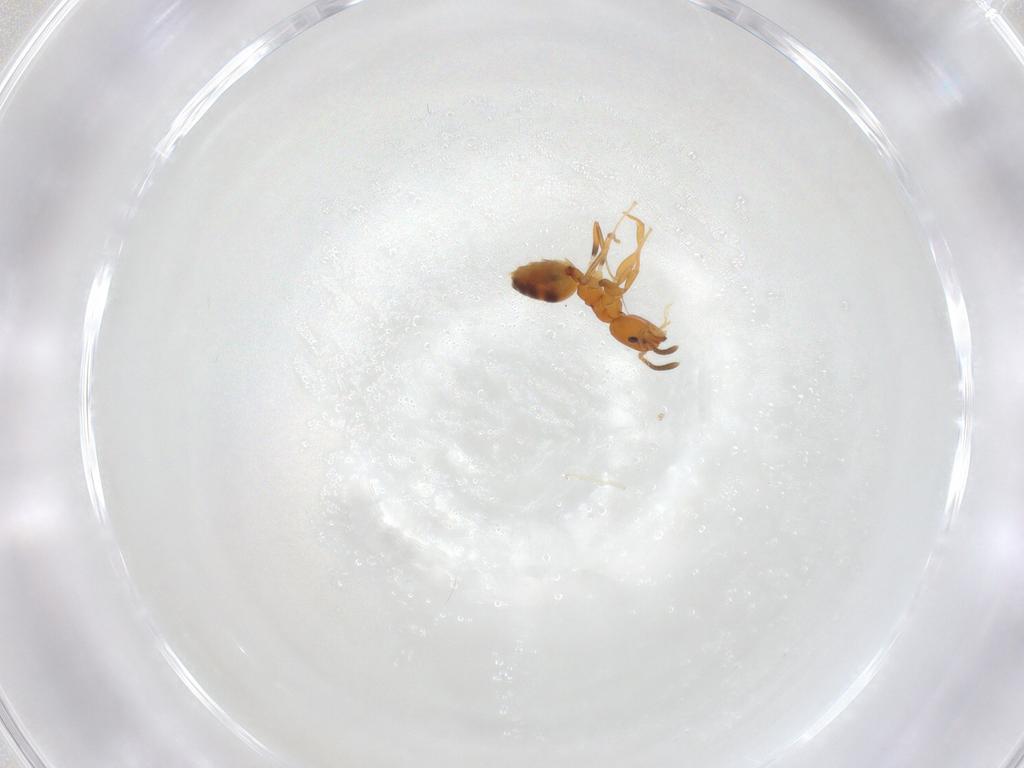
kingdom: Animalia
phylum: Arthropoda
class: Insecta
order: Hymenoptera
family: Formicidae
